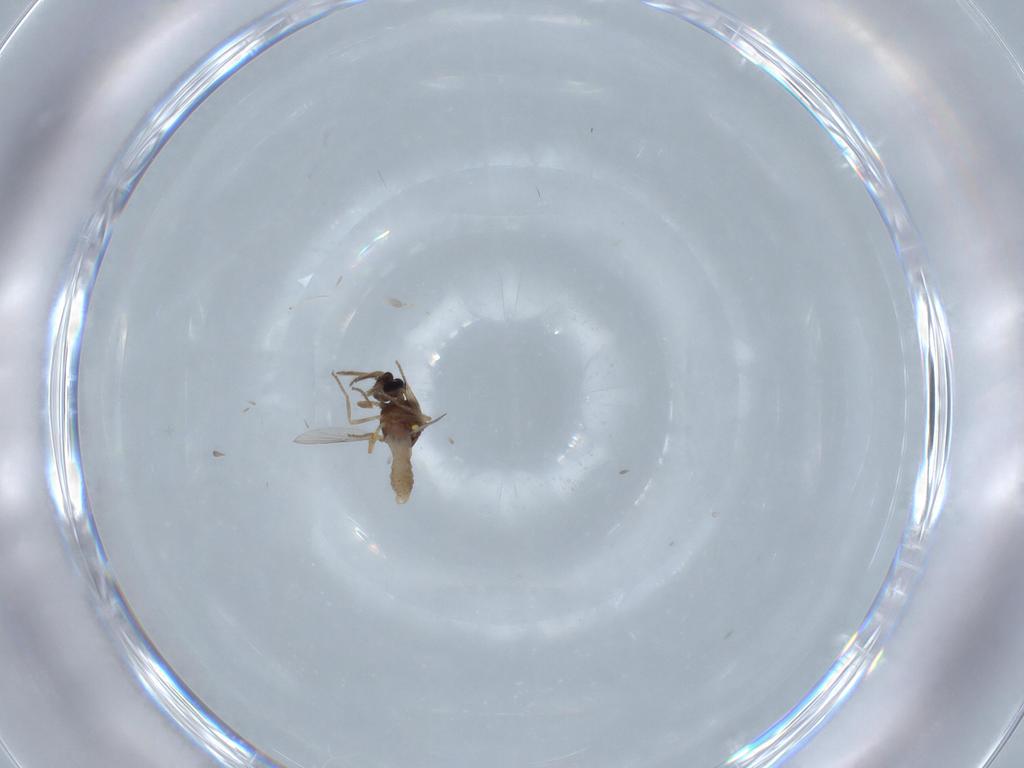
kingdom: Animalia
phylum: Arthropoda
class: Insecta
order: Diptera
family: Ceratopogonidae
